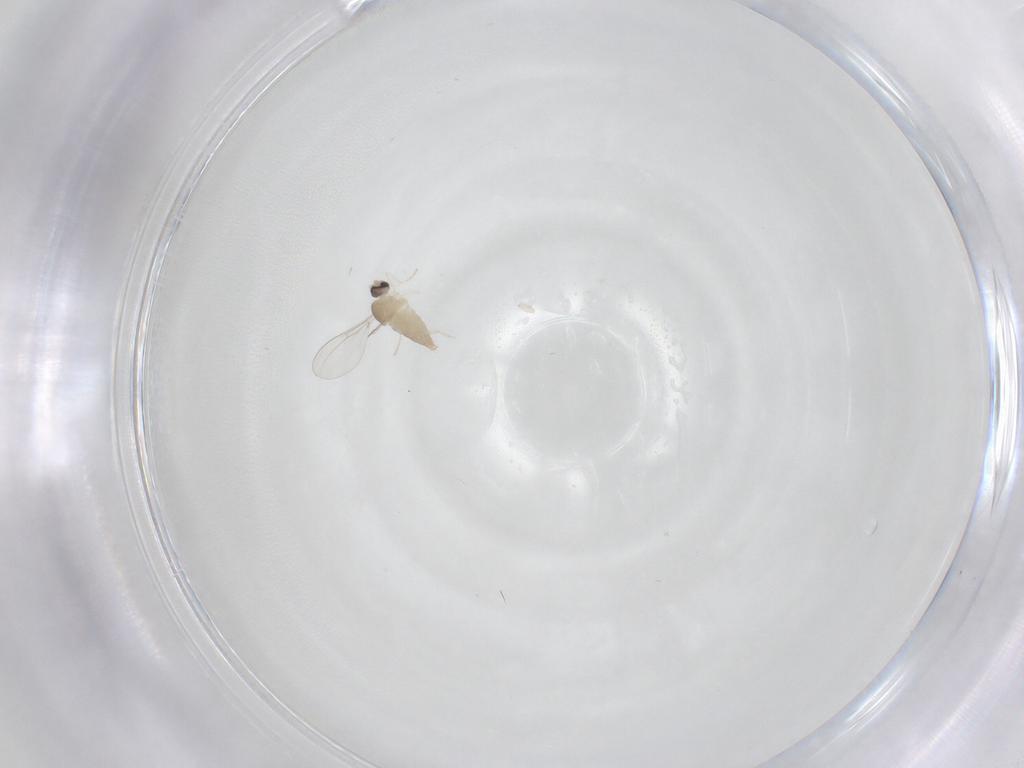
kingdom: Animalia
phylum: Arthropoda
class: Insecta
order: Diptera
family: Cecidomyiidae
